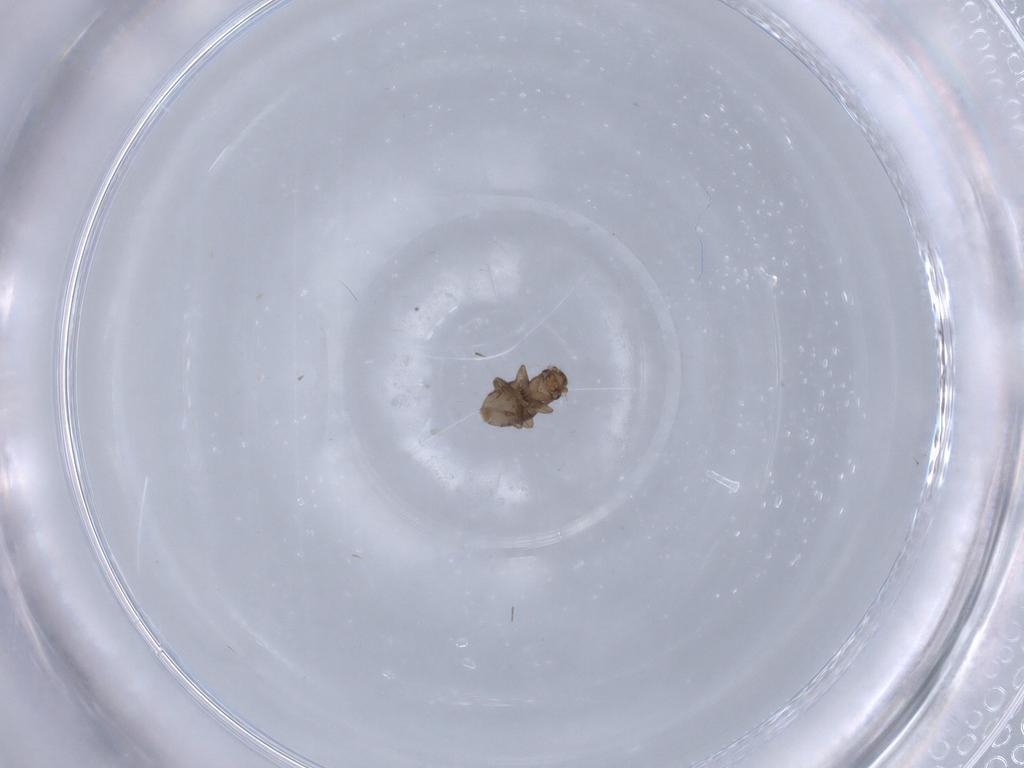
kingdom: Animalia
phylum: Arthropoda
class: Insecta
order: Diptera
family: Chironomidae
